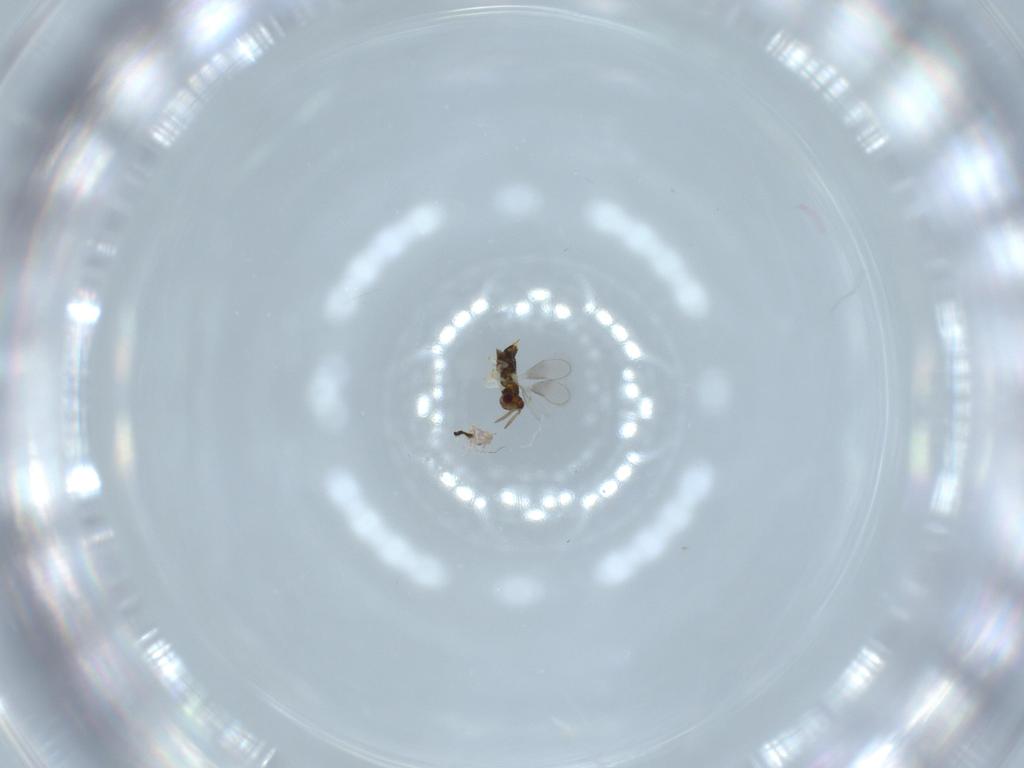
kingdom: Animalia
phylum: Arthropoda
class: Insecta
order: Hymenoptera
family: Aphelinidae
